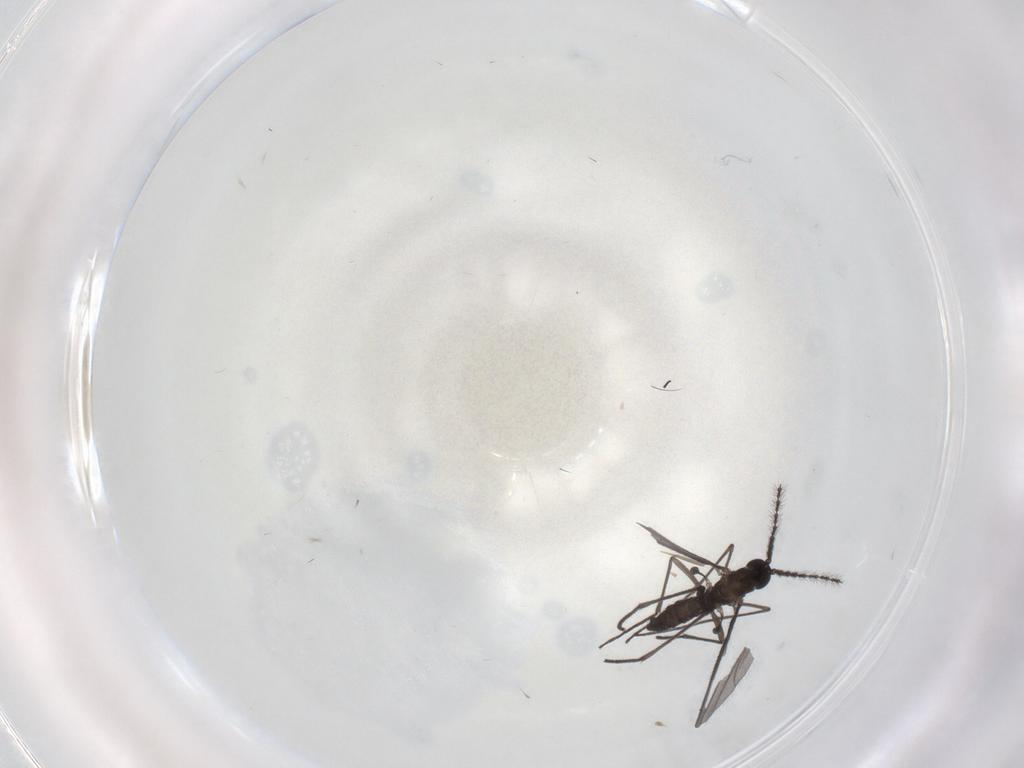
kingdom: Animalia
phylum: Arthropoda
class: Insecta
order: Diptera
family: Sciaridae
